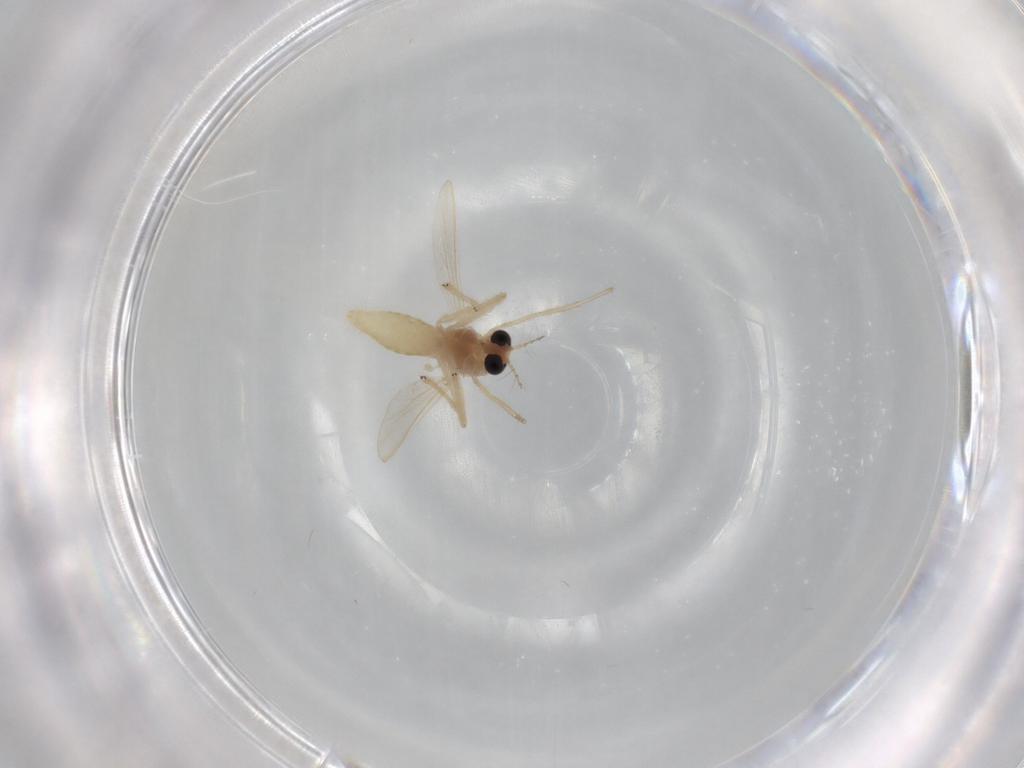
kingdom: Animalia
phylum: Arthropoda
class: Insecta
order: Diptera
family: Chironomidae
